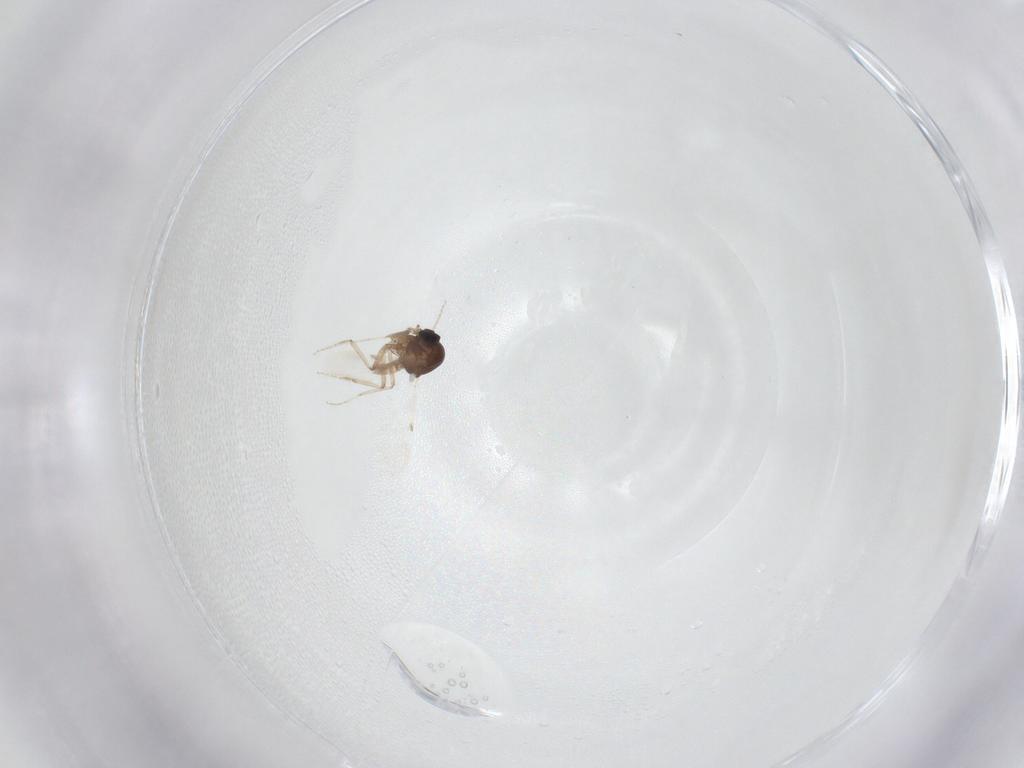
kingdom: Animalia
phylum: Arthropoda
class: Insecta
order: Diptera
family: Ceratopogonidae
